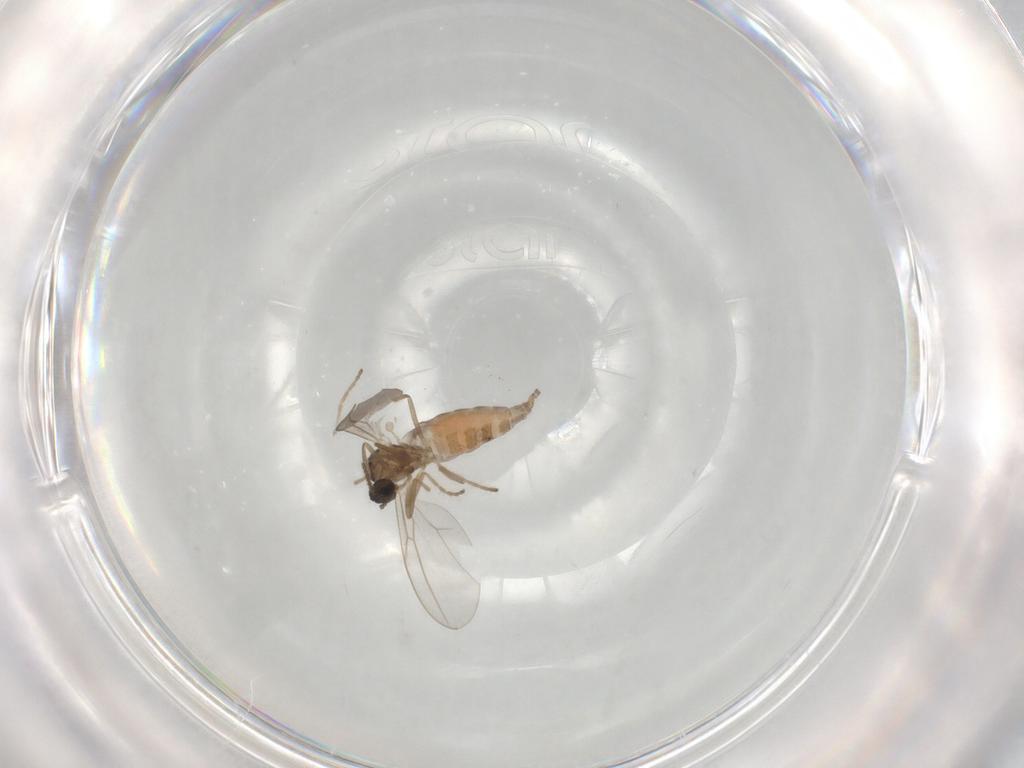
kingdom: Animalia
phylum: Arthropoda
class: Insecta
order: Diptera
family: Cecidomyiidae
